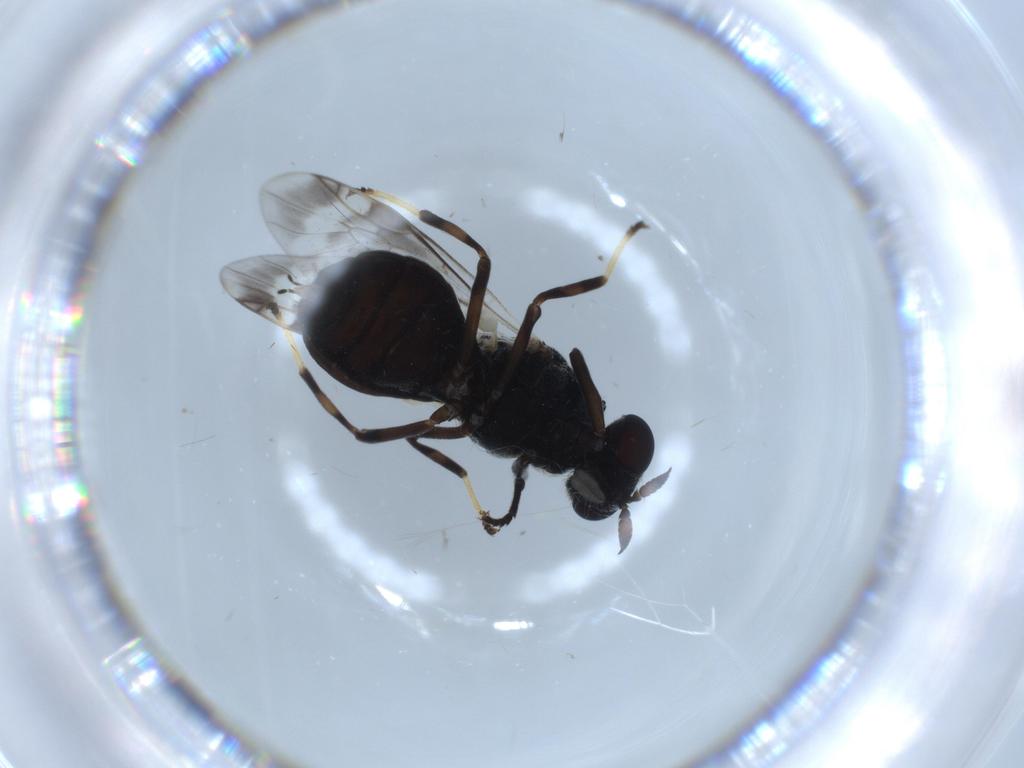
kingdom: Animalia
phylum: Arthropoda
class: Insecta
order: Diptera
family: Stratiomyidae
